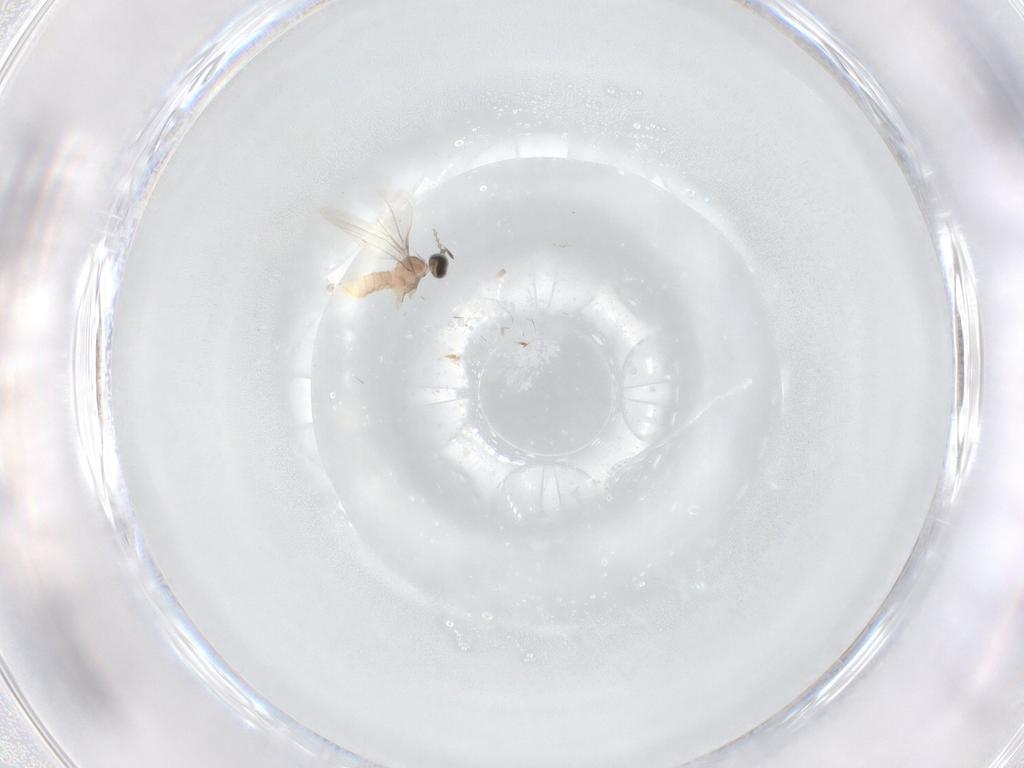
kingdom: Animalia
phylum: Arthropoda
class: Insecta
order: Diptera
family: Cecidomyiidae
